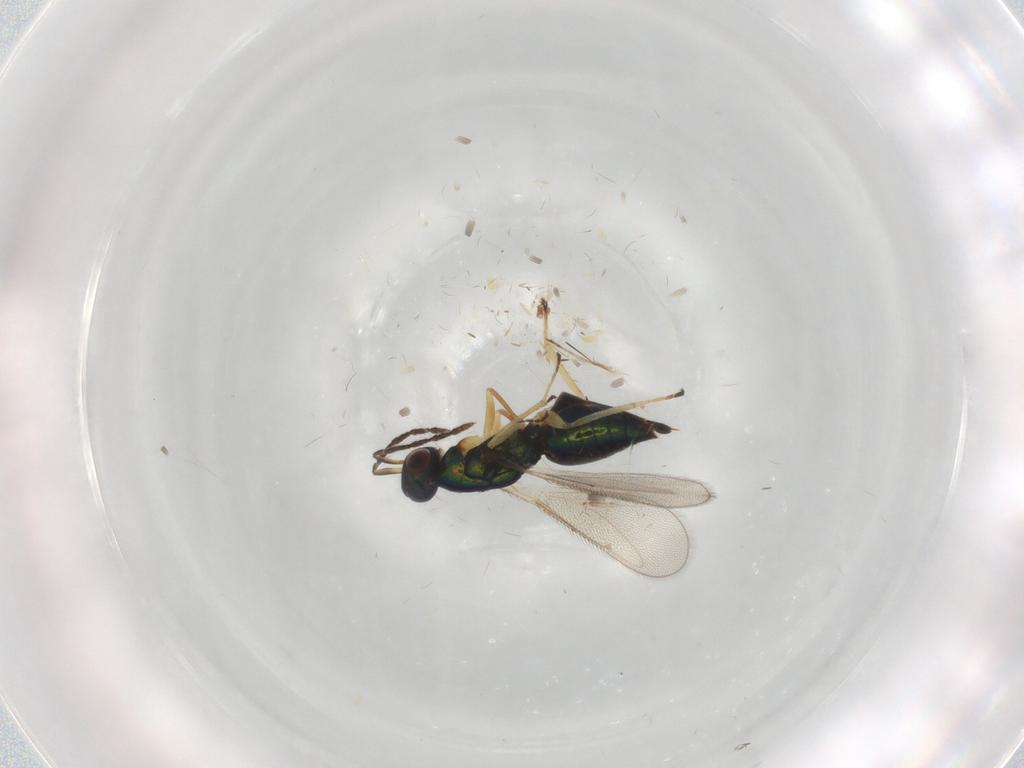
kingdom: Animalia
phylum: Arthropoda
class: Insecta
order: Hymenoptera
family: Eulophidae
